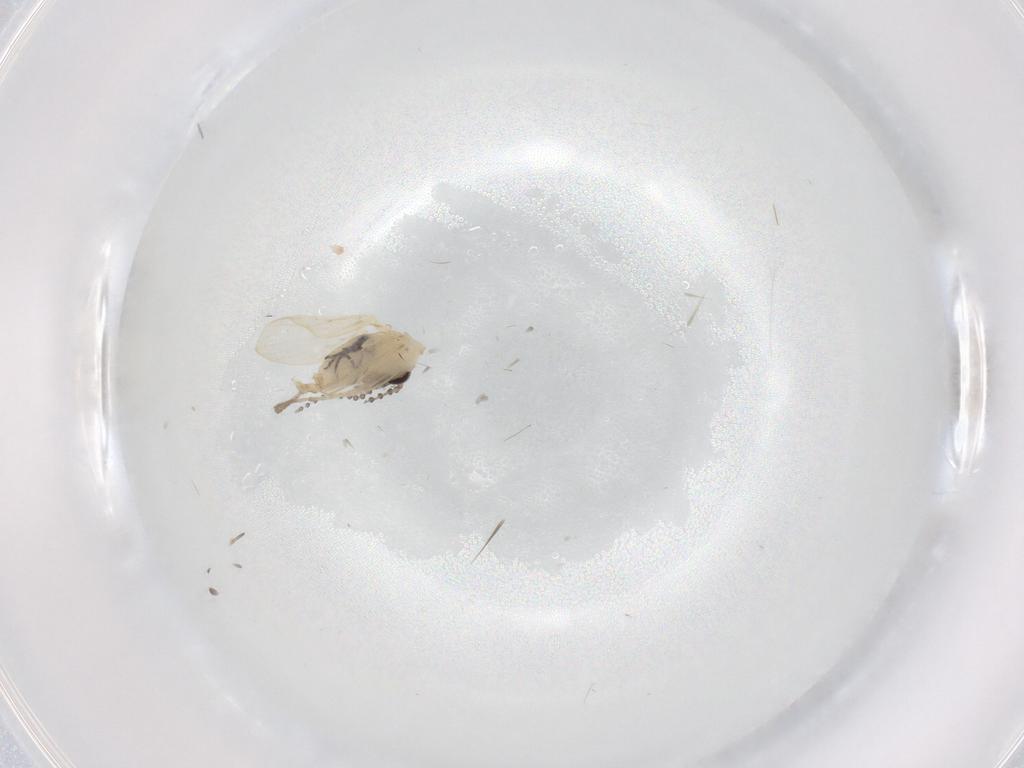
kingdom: Animalia
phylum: Arthropoda
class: Insecta
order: Diptera
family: Psychodidae
